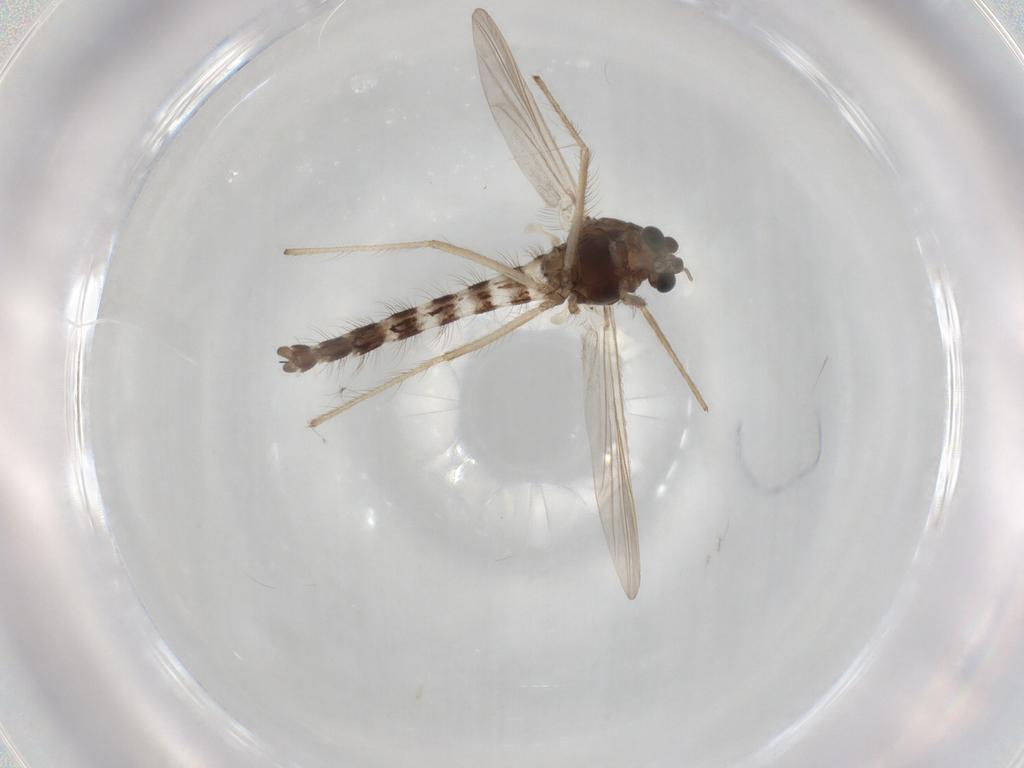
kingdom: Animalia
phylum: Arthropoda
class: Insecta
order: Diptera
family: Chironomidae
